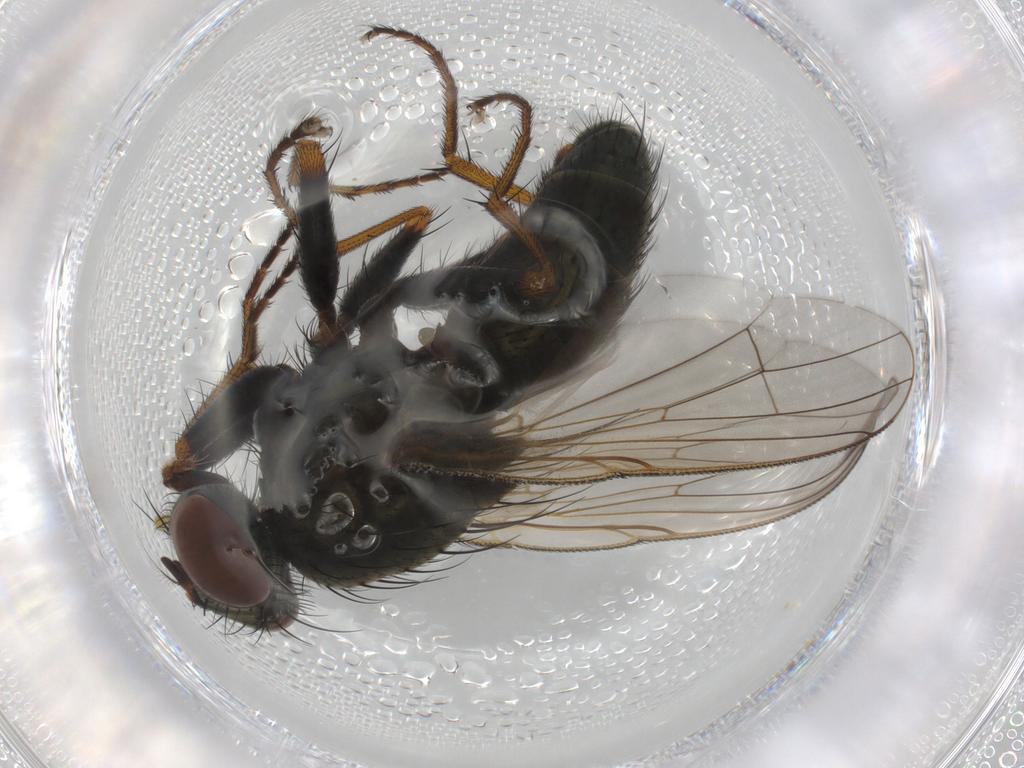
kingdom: Animalia
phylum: Arthropoda
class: Insecta
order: Diptera
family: Muscidae
